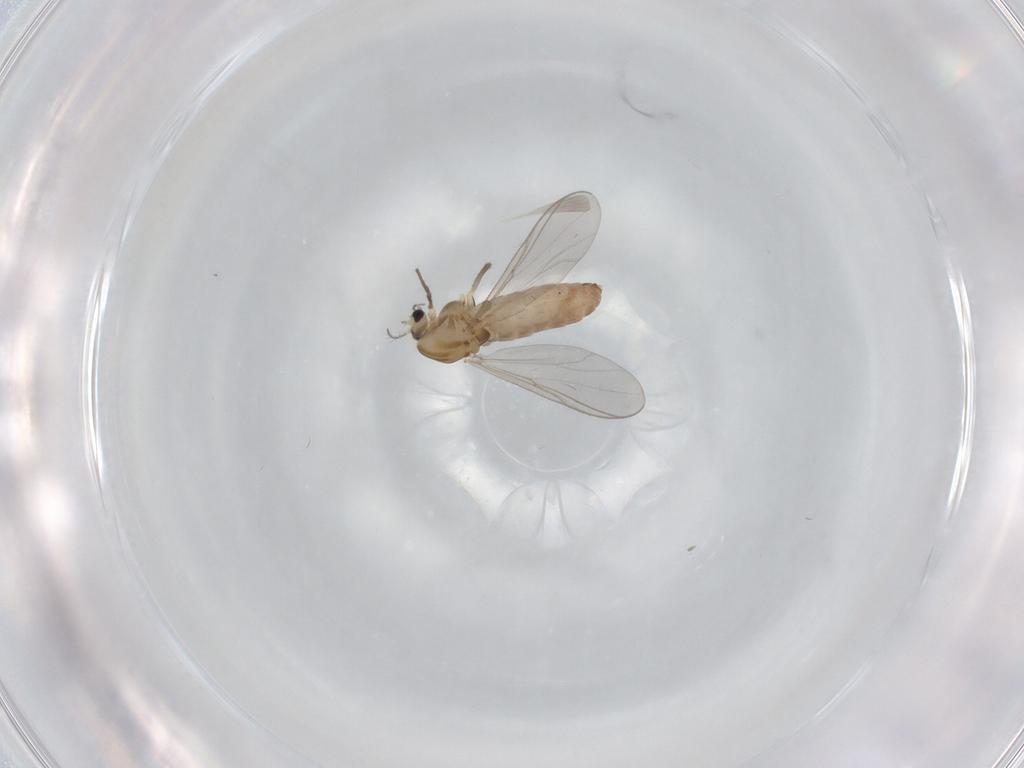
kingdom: Animalia
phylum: Arthropoda
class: Insecta
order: Diptera
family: Chironomidae
